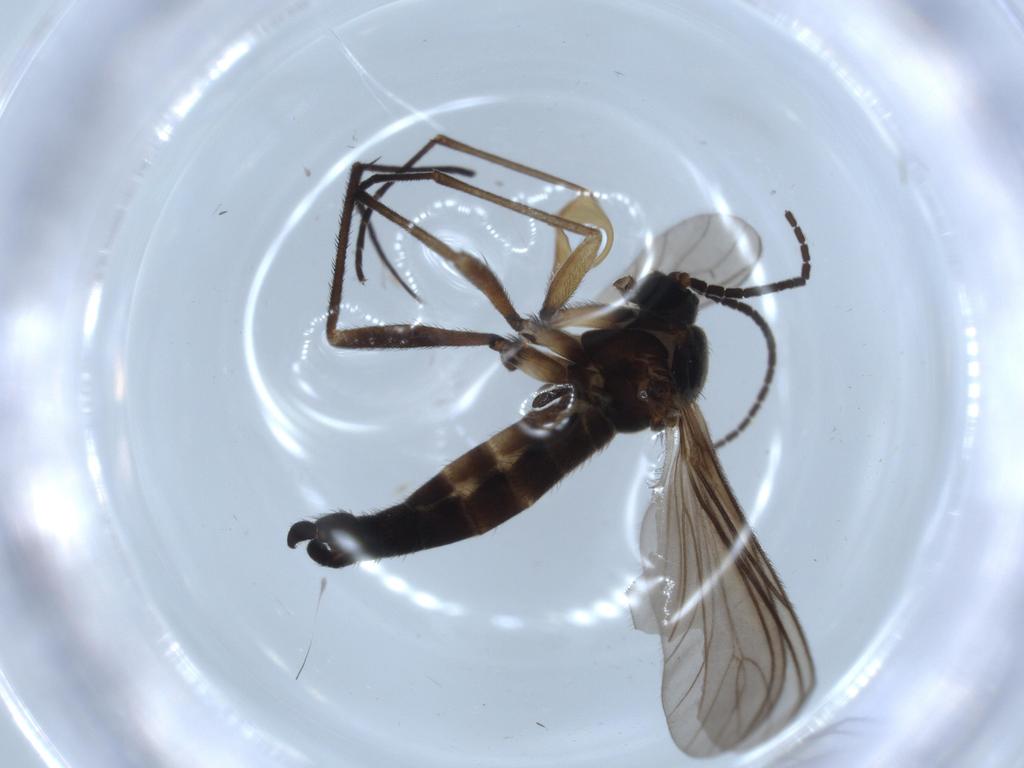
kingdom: Animalia
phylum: Arthropoda
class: Insecta
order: Diptera
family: Sciaridae
